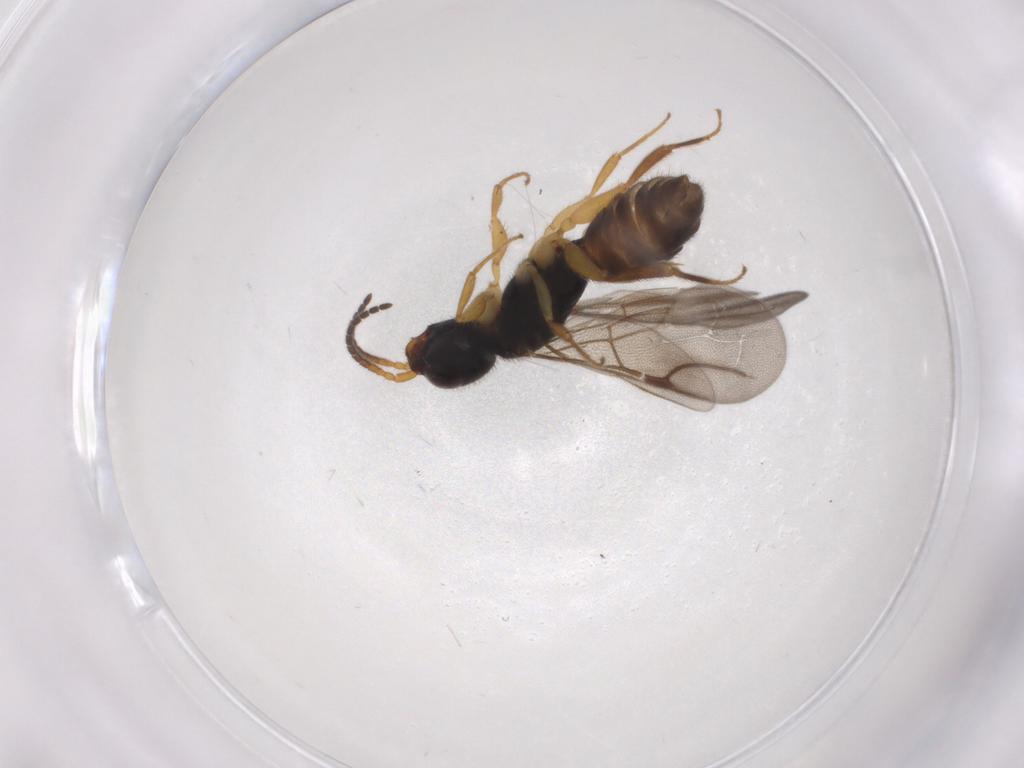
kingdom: Animalia
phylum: Arthropoda
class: Insecta
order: Hymenoptera
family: Bethylidae
